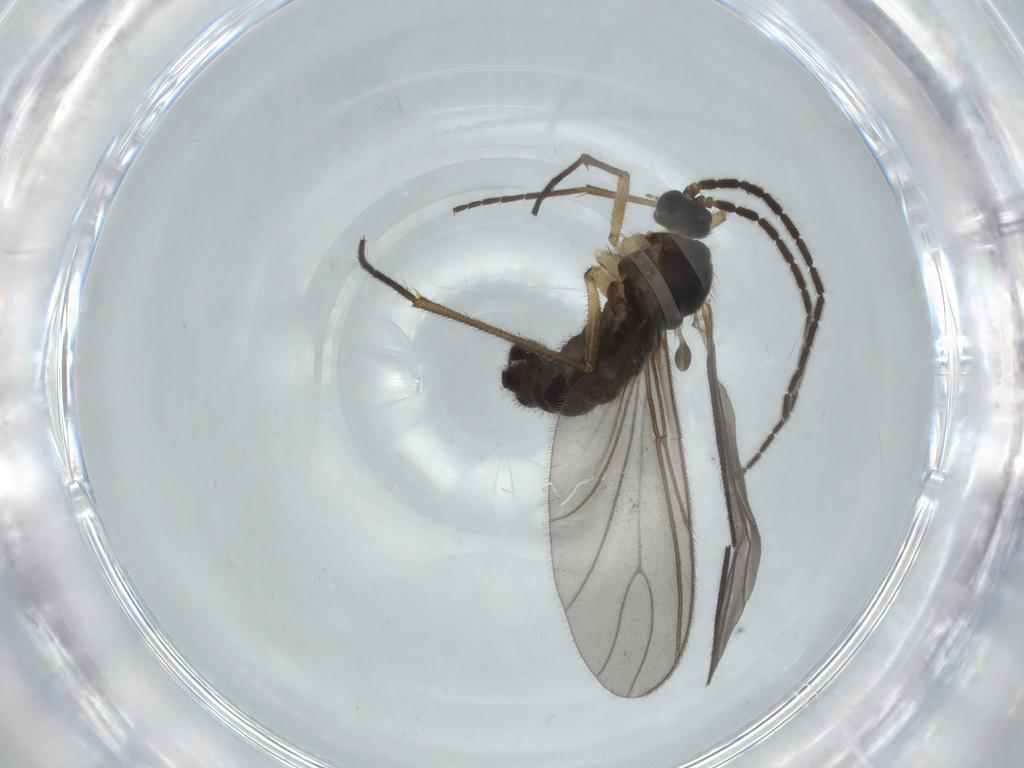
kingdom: Animalia
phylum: Arthropoda
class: Insecta
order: Diptera
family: Sciaridae
